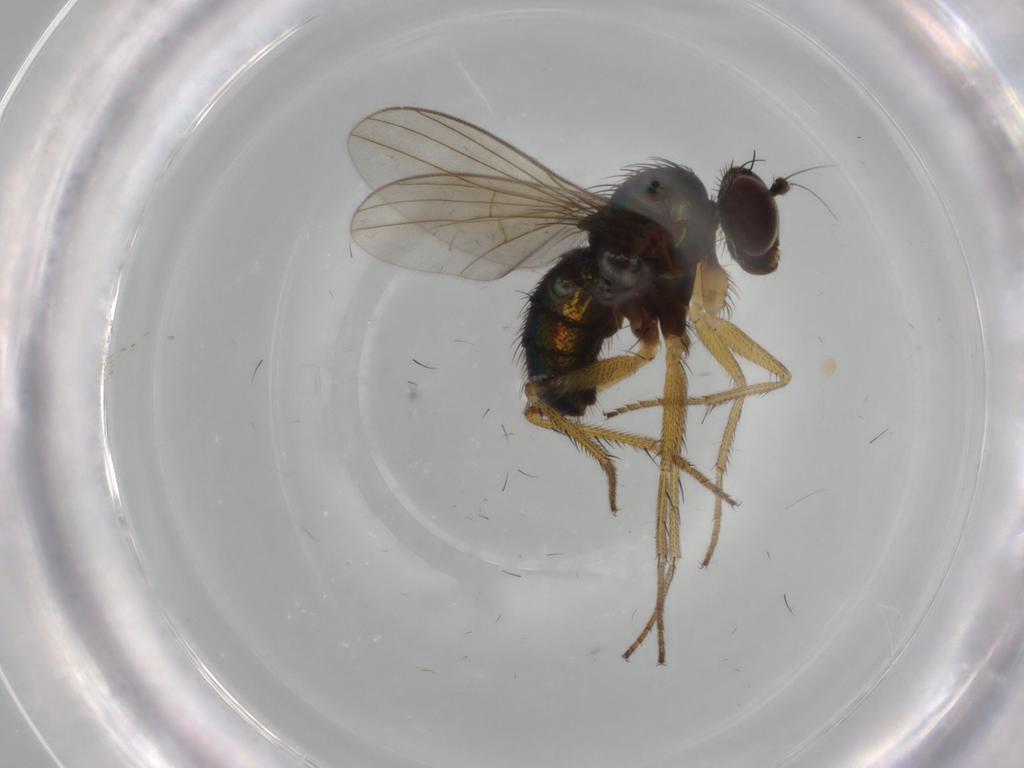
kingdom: Animalia
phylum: Arthropoda
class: Insecta
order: Diptera
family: Dolichopodidae
